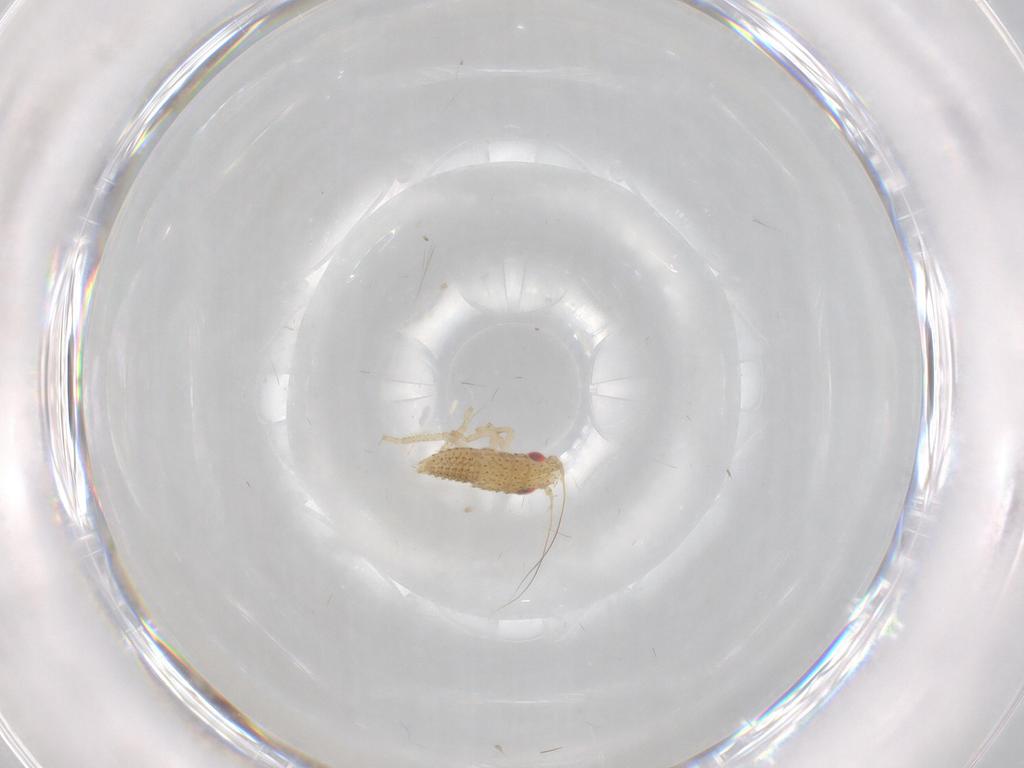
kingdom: Animalia
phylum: Arthropoda
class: Insecta
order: Hemiptera
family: Cicadellidae
